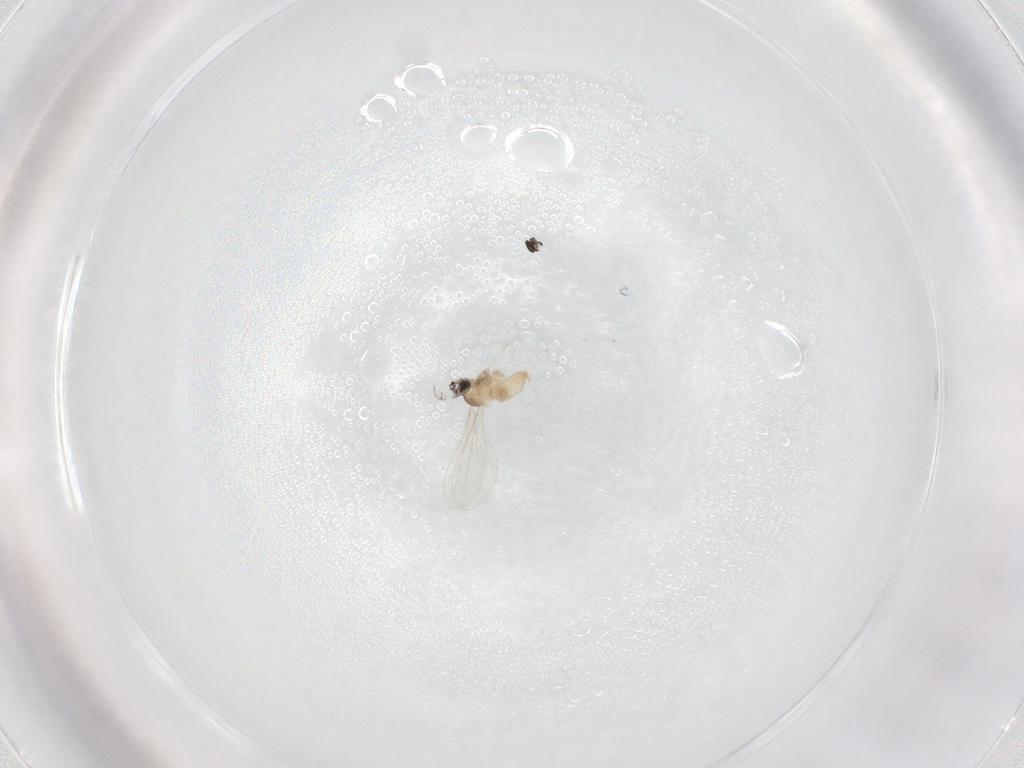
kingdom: Animalia
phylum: Arthropoda
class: Insecta
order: Diptera
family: Cecidomyiidae
